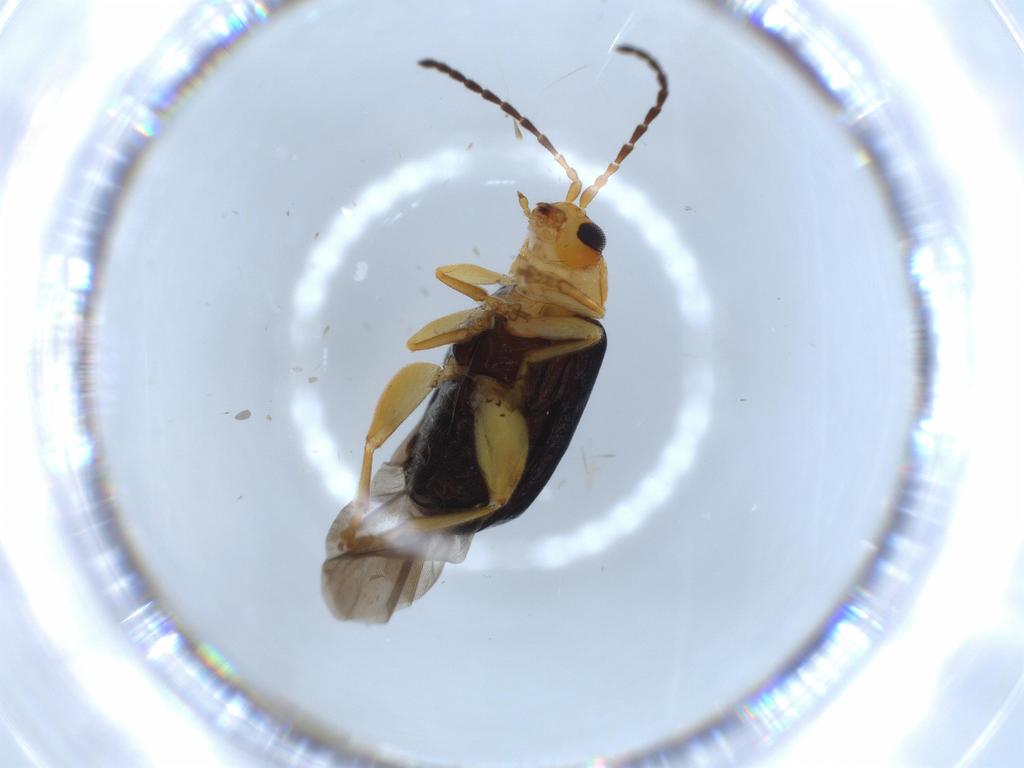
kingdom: Animalia
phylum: Arthropoda
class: Insecta
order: Coleoptera
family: Chrysomelidae
